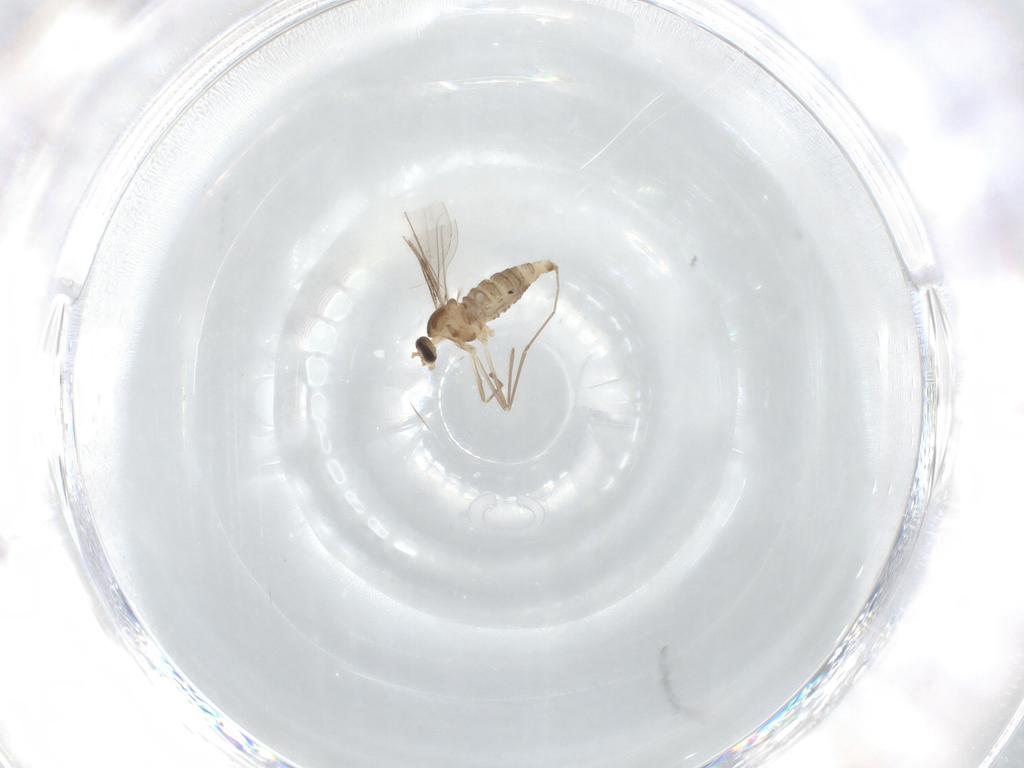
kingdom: Animalia
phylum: Arthropoda
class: Insecta
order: Diptera
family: Cecidomyiidae
